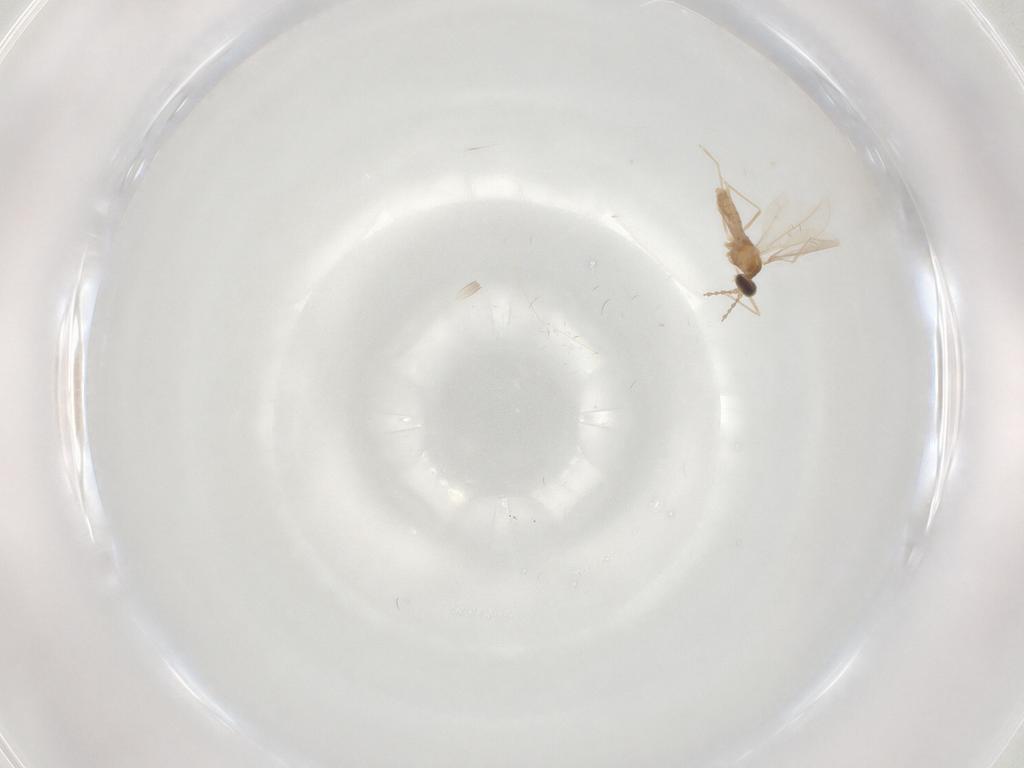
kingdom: Animalia
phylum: Arthropoda
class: Insecta
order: Diptera
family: Cecidomyiidae
